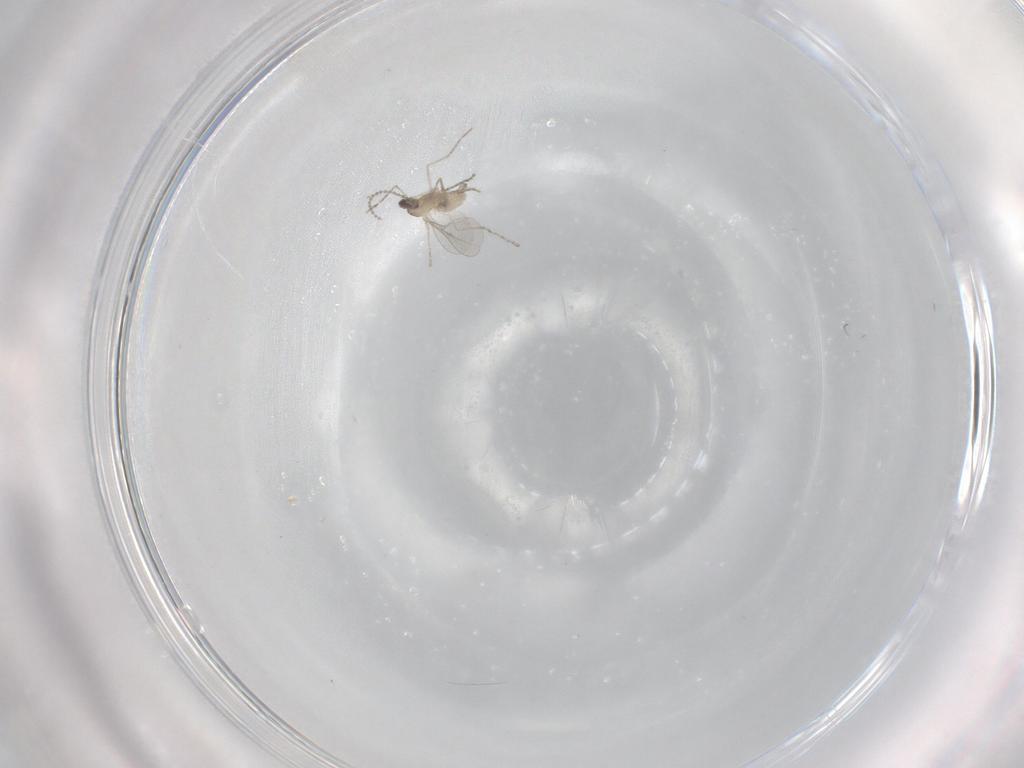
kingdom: Animalia
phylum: Arthropoda
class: Insecta
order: Diptera
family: Cecidomyiidae
